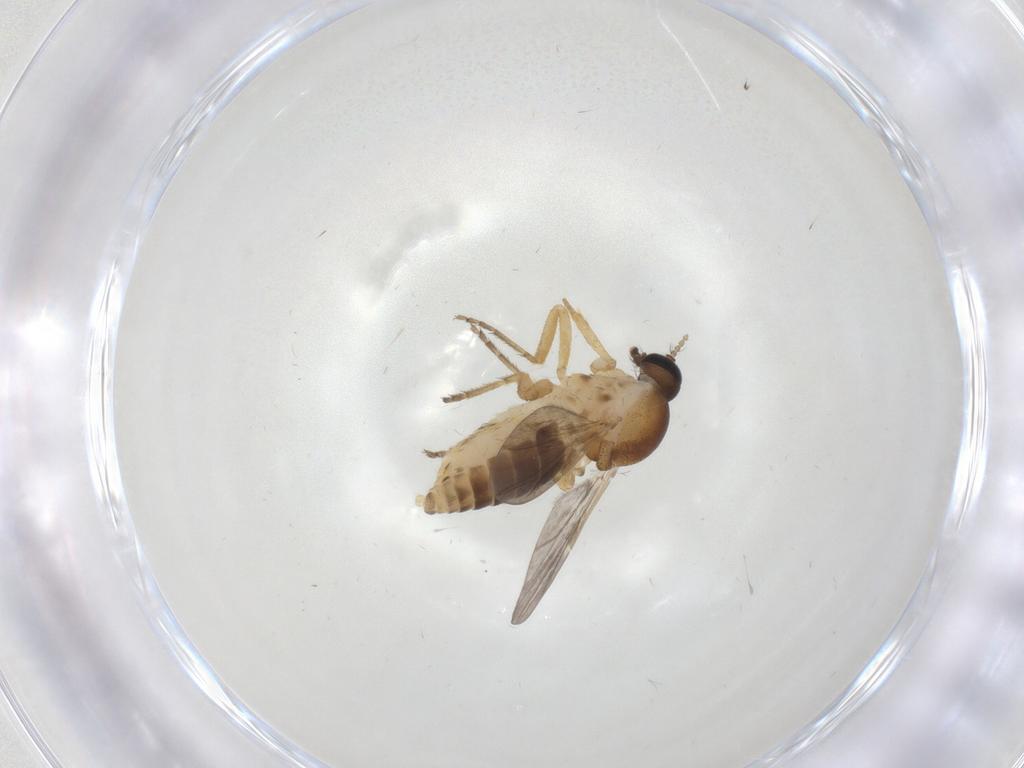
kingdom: Animalia
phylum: Arthropoda
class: Insecta
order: Diptera
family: Ceratopogonidae
